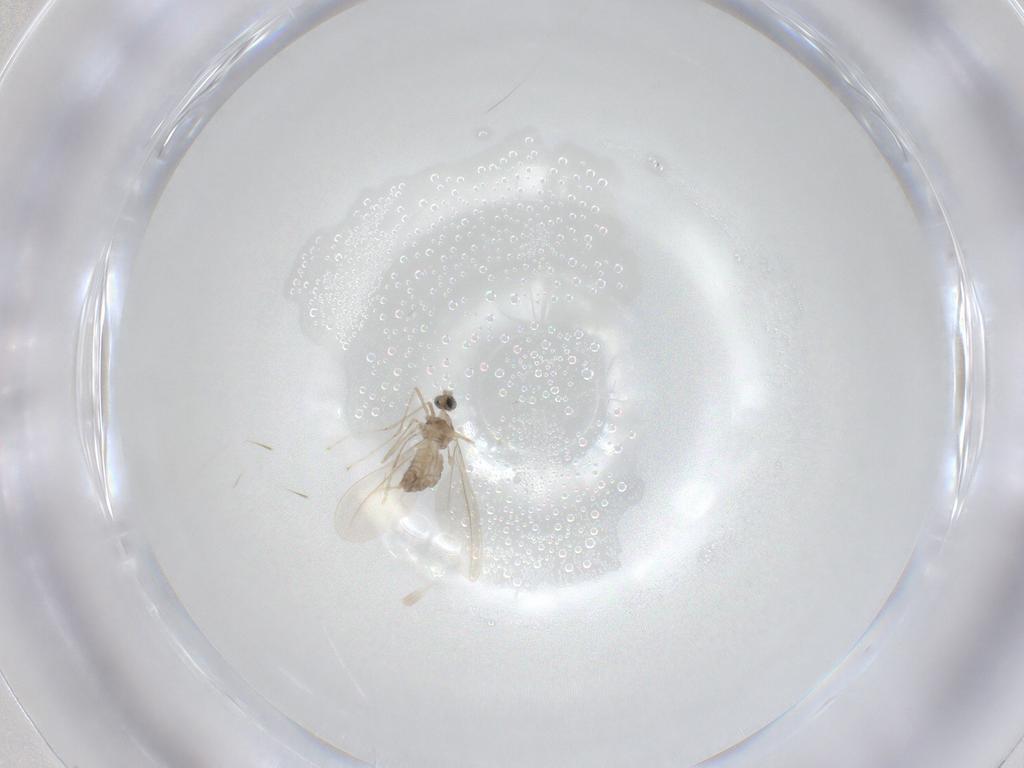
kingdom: Animalia
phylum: Arthropoda
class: Insecta
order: Diptera
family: Cecidomyiidae
